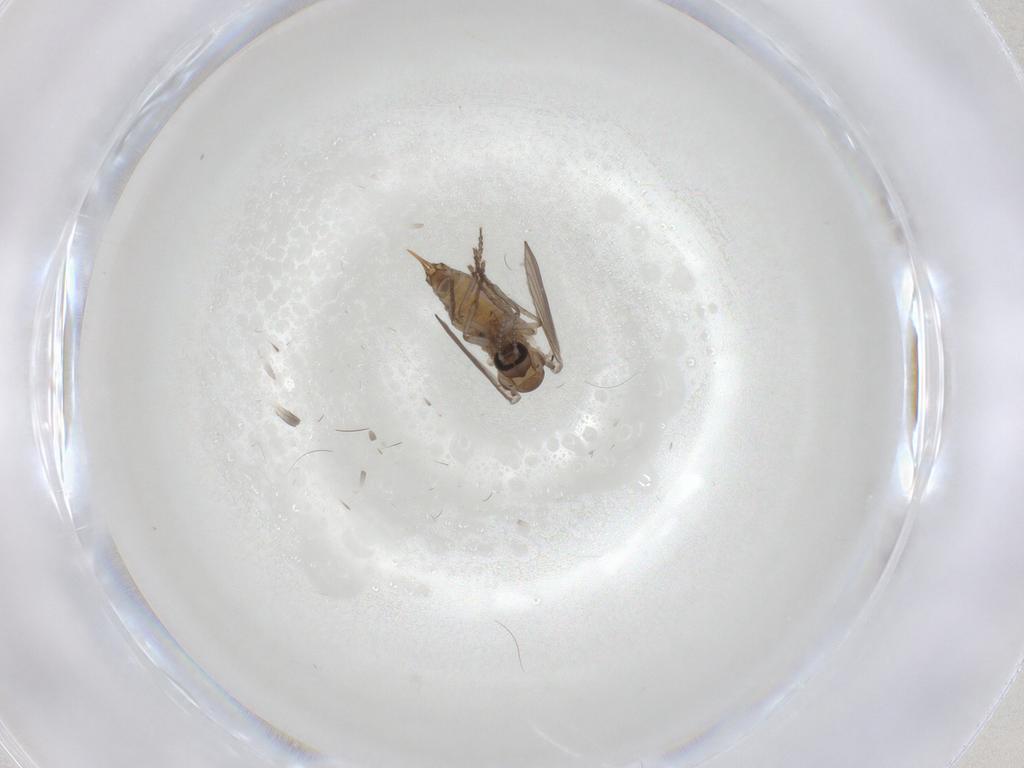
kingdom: Animalia
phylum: Arthropoda
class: Insecta
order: Diptera
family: Psychodidae
